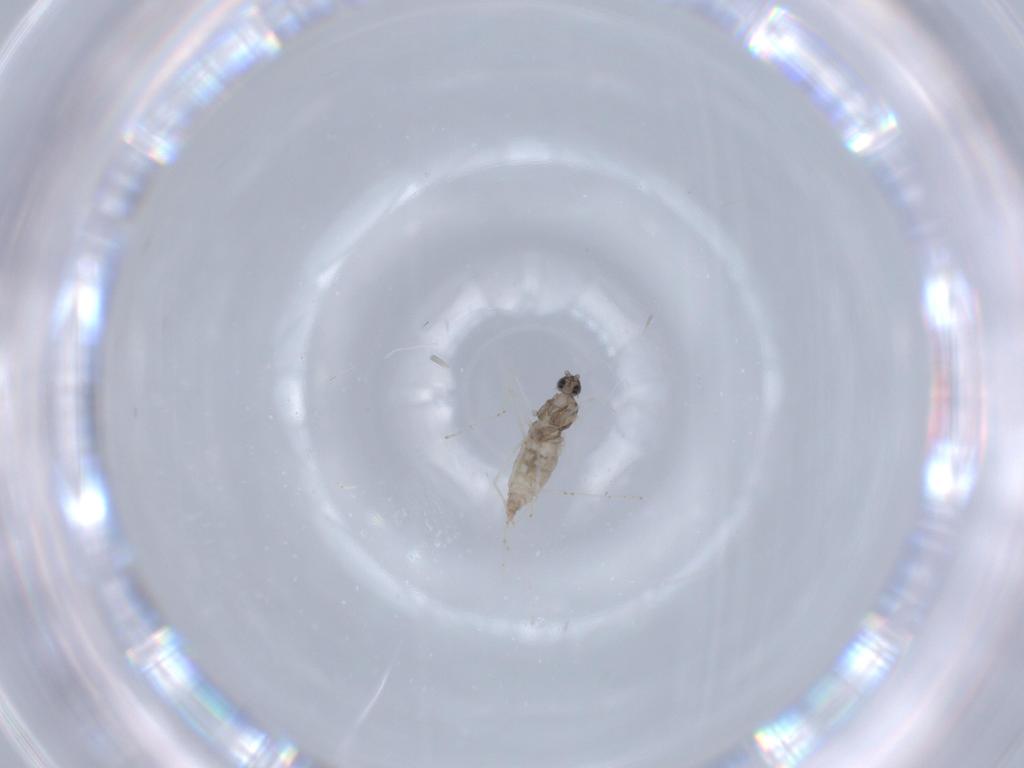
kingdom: Animalia
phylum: Arthropoda
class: Insecta
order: Diptera
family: Cecidomyiidae
